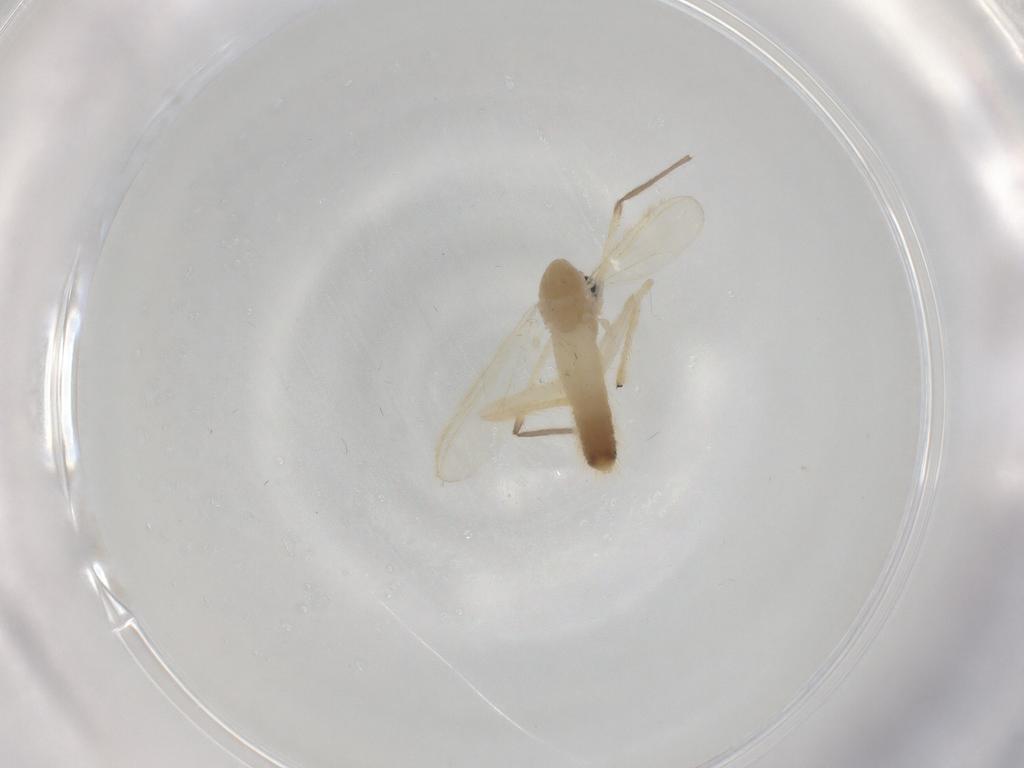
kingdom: Animalia
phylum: Arthropoda
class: Insecta
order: Diptera
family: Chironomidae
